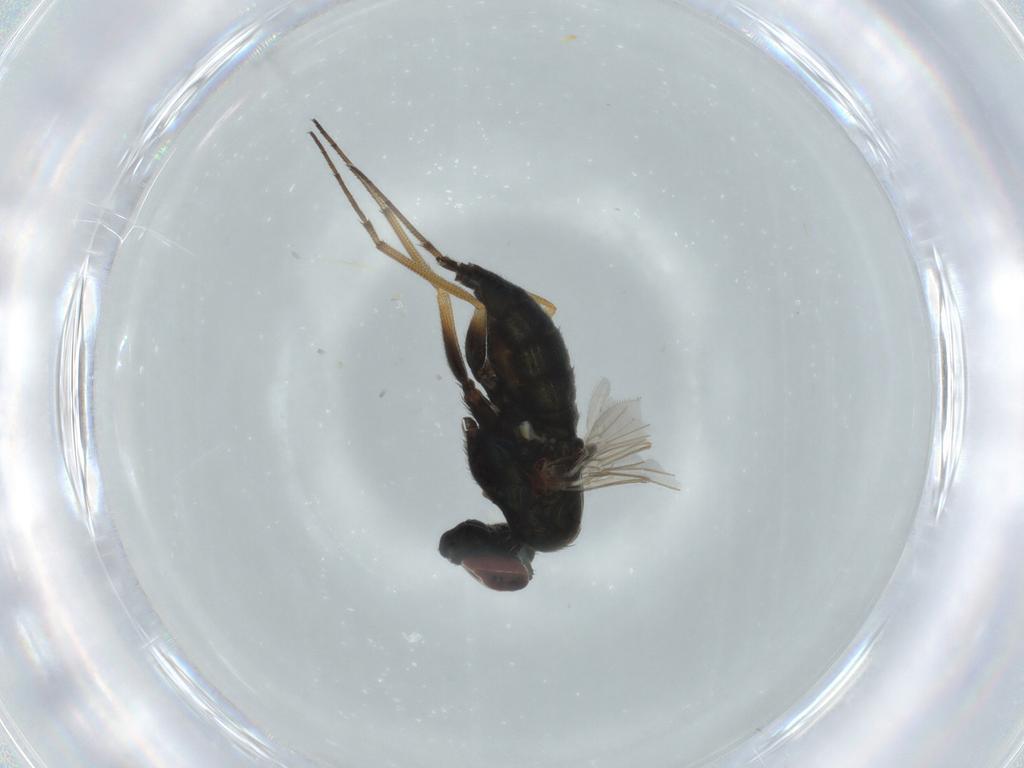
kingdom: Animalia
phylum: Arthropoda
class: Insecta
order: Diptera
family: Dolichopodidae
